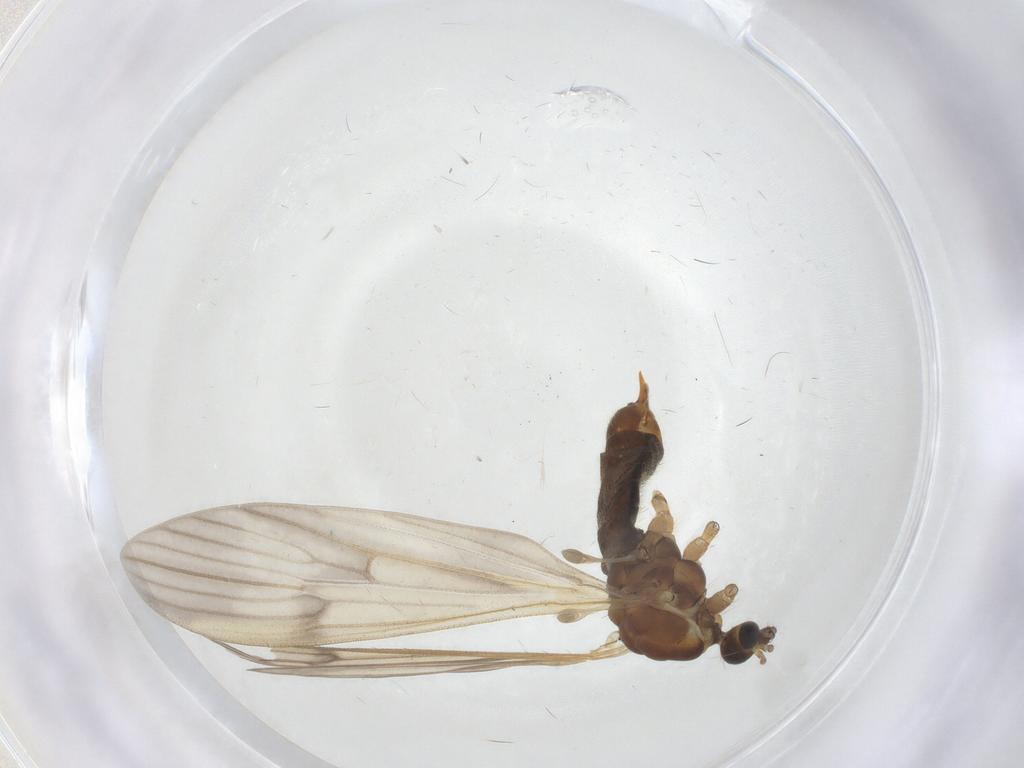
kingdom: Animalia
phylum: Arthropoda
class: Insecta
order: Diptera
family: Limoniidae
